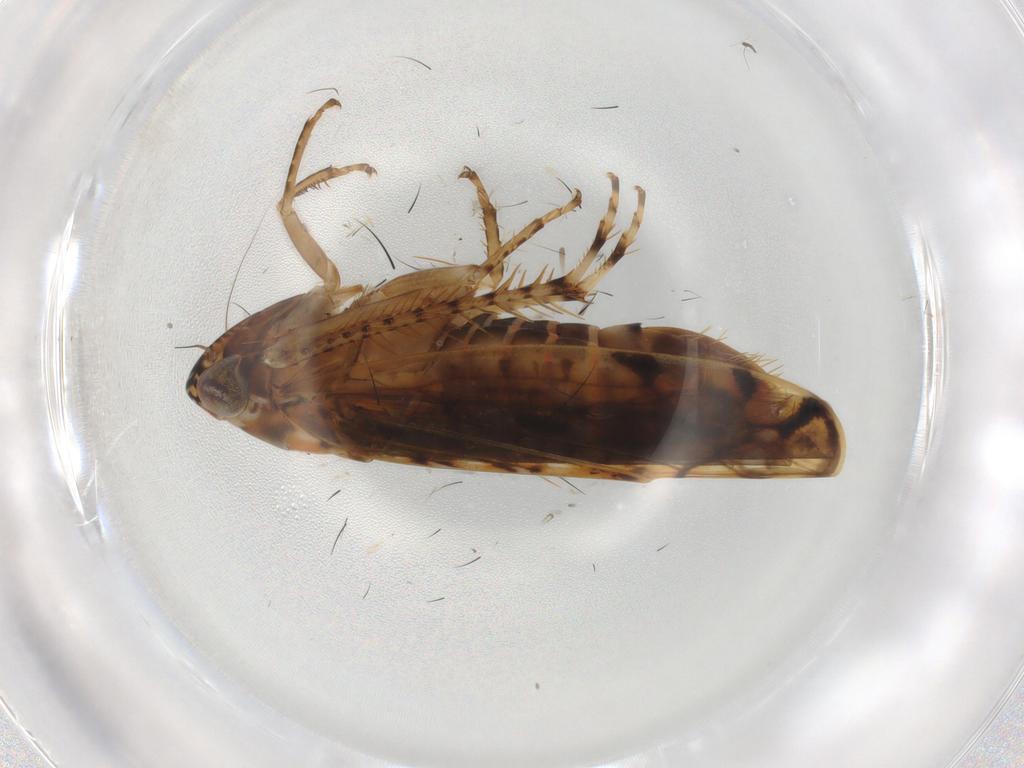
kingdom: Animalia
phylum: Arthropoda
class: Insecta
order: Hemiptera
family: Cicadellidae
